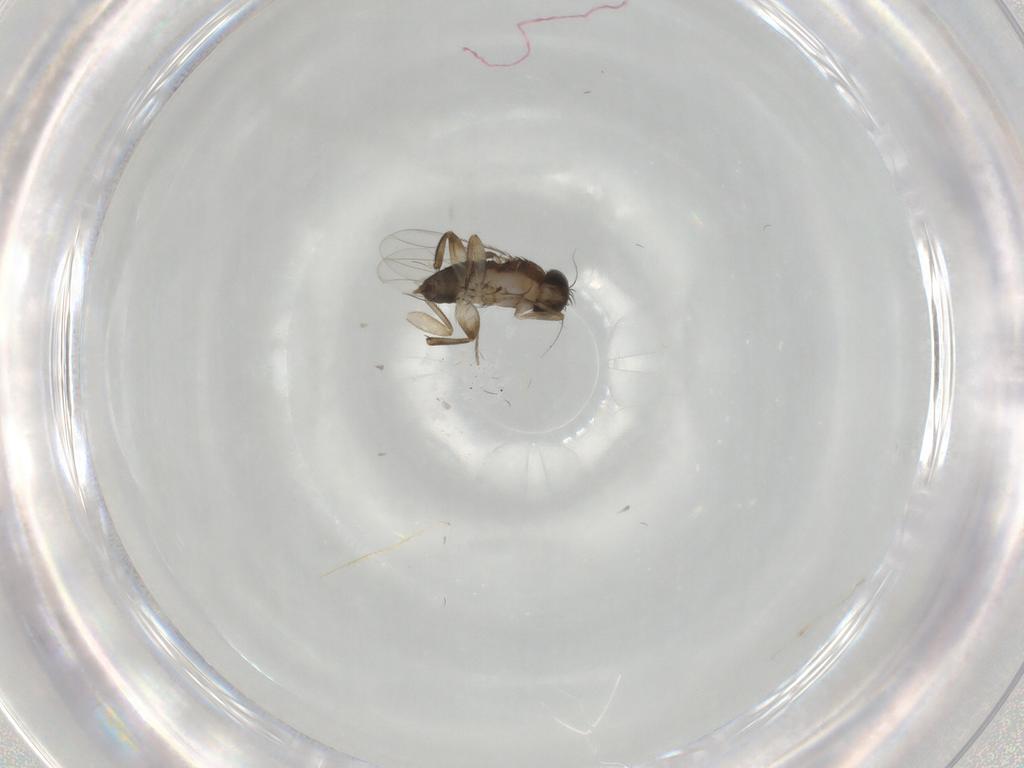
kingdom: Animalia
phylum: Arthropoda
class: Insecta
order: Diptera
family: Phoridae
